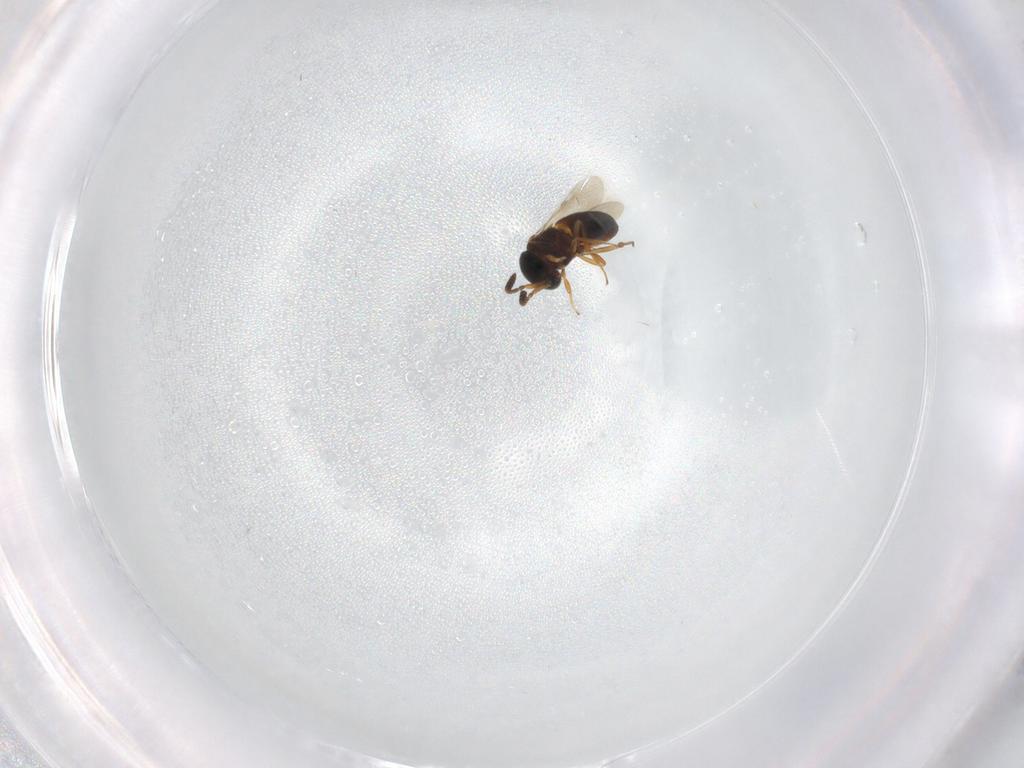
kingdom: Animalia
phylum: Arthropoda
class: Insecta
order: Hymenoptera
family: Scelionidae
